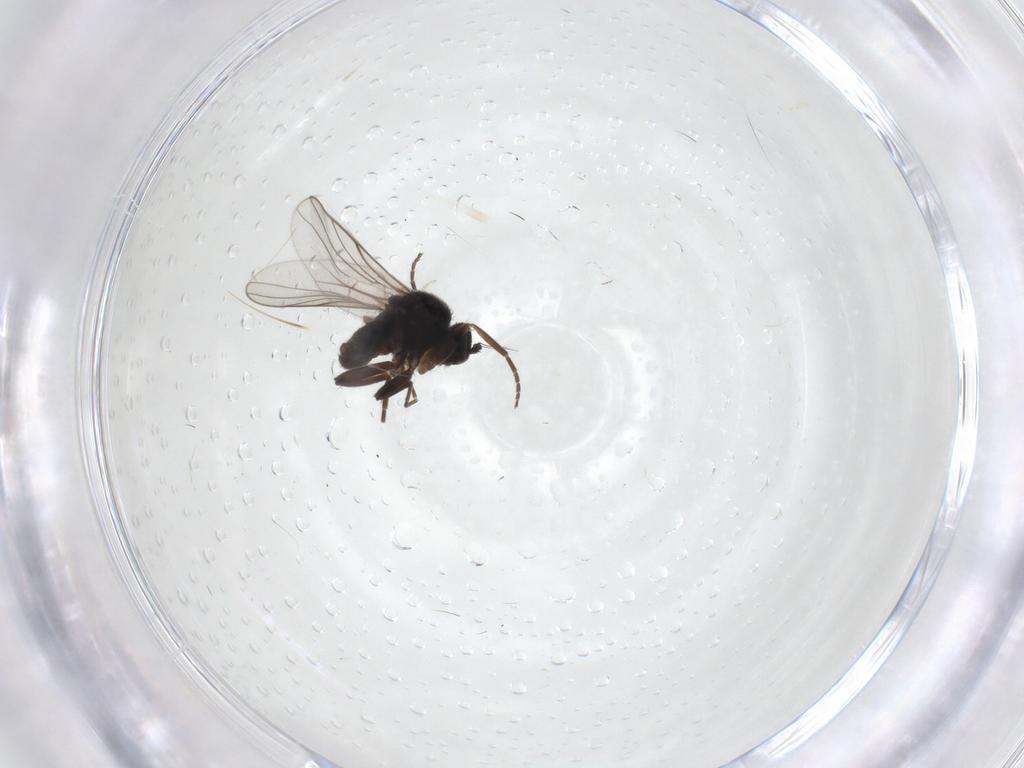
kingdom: Animalia
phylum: Arthropoda
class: Insecta
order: Diptera
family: Hybotidae
